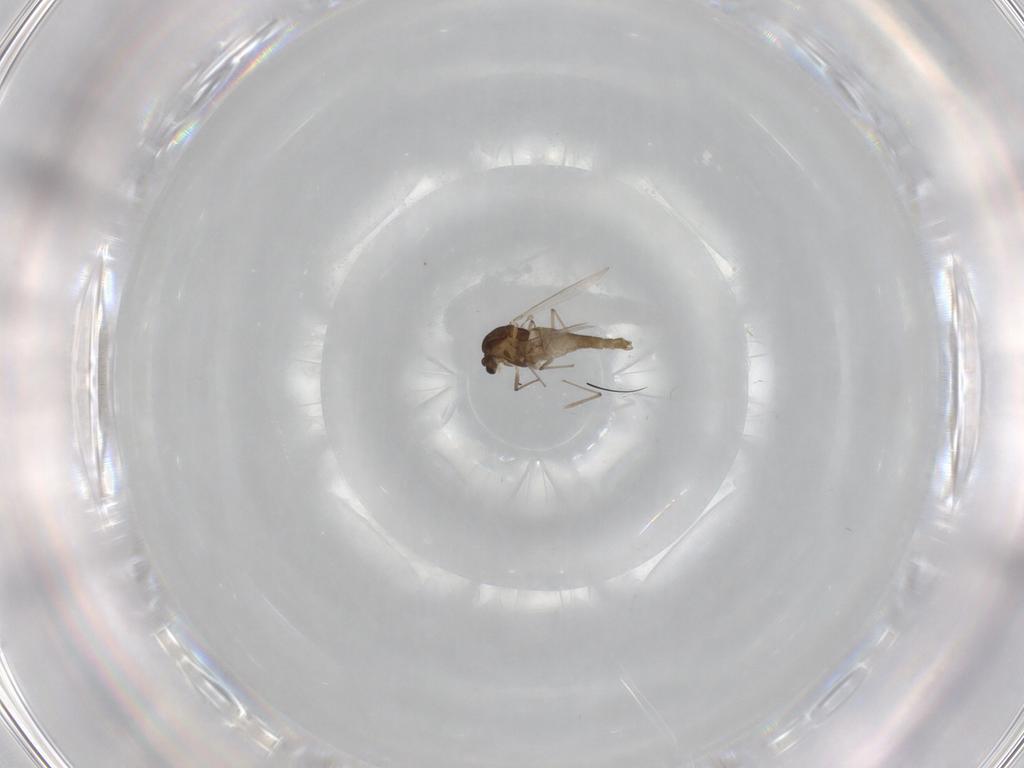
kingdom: Animalia
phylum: Arthropoda
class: Insecta
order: Diptera
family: Chironomidae
